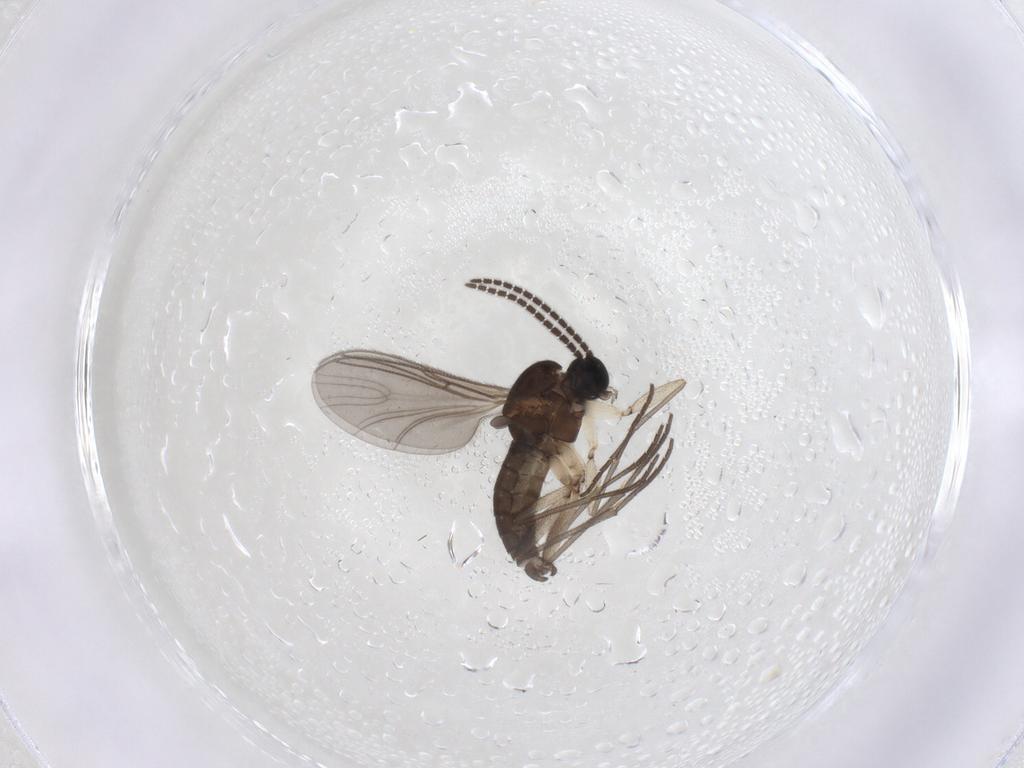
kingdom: Animalia
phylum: Arthropoda
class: Insecta
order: Diptera
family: Sciaridae
